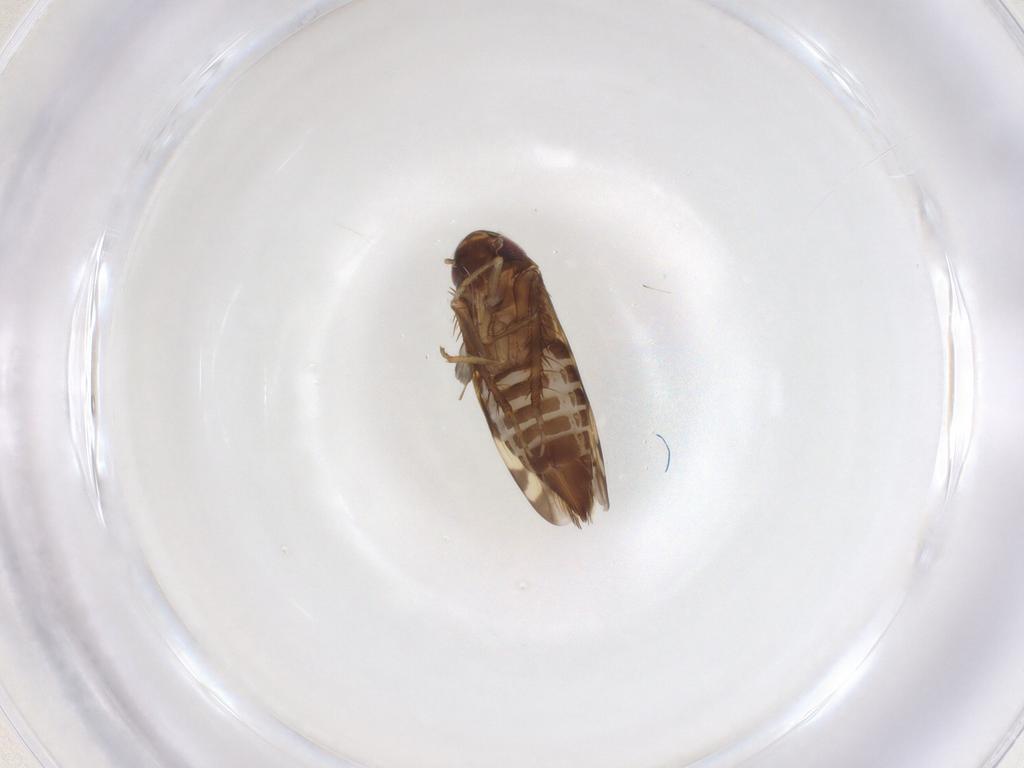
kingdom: Animalia
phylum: Arthropoda
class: Insecta
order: Hemiptera
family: Cicadellidae
